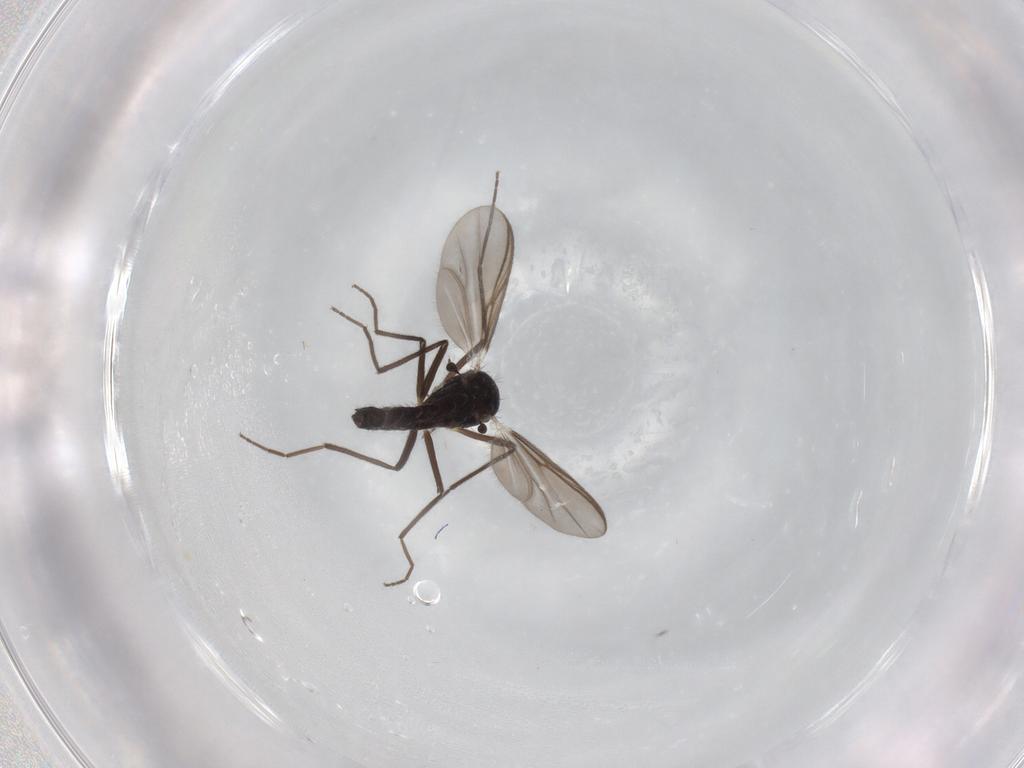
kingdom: Animalia
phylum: Arthropoda
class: Insecta
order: Diptera
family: Chironomidae
